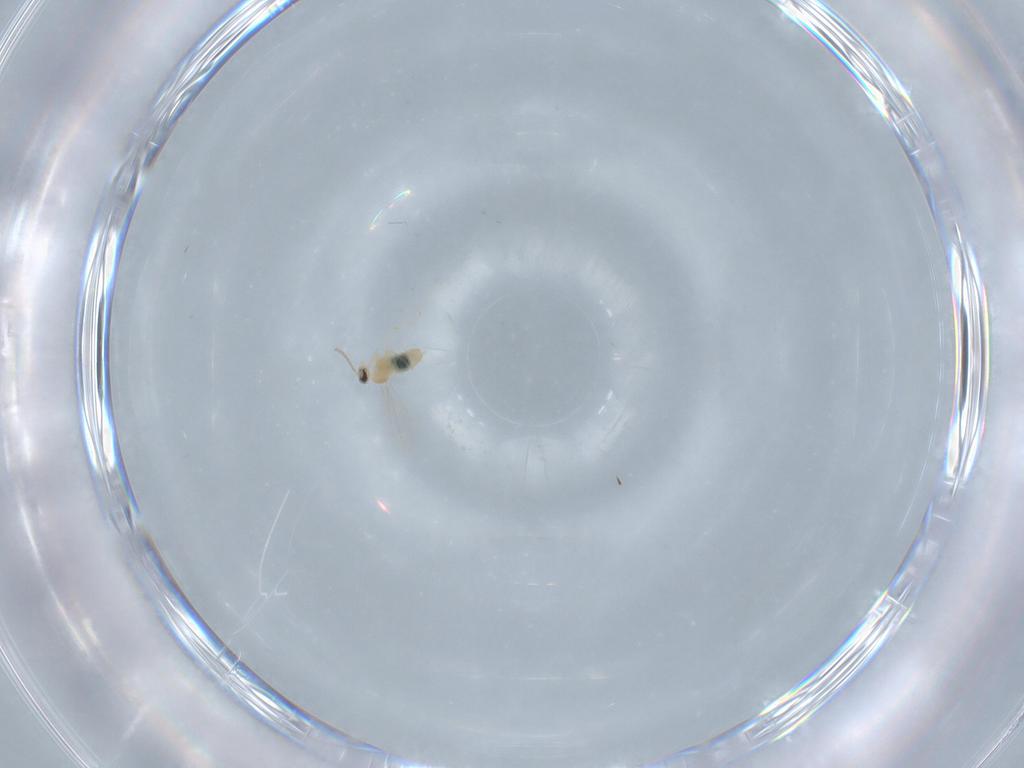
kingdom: Animalia
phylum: Arthropoda
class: Insecta
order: Diptera
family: Cecidomyiidae
